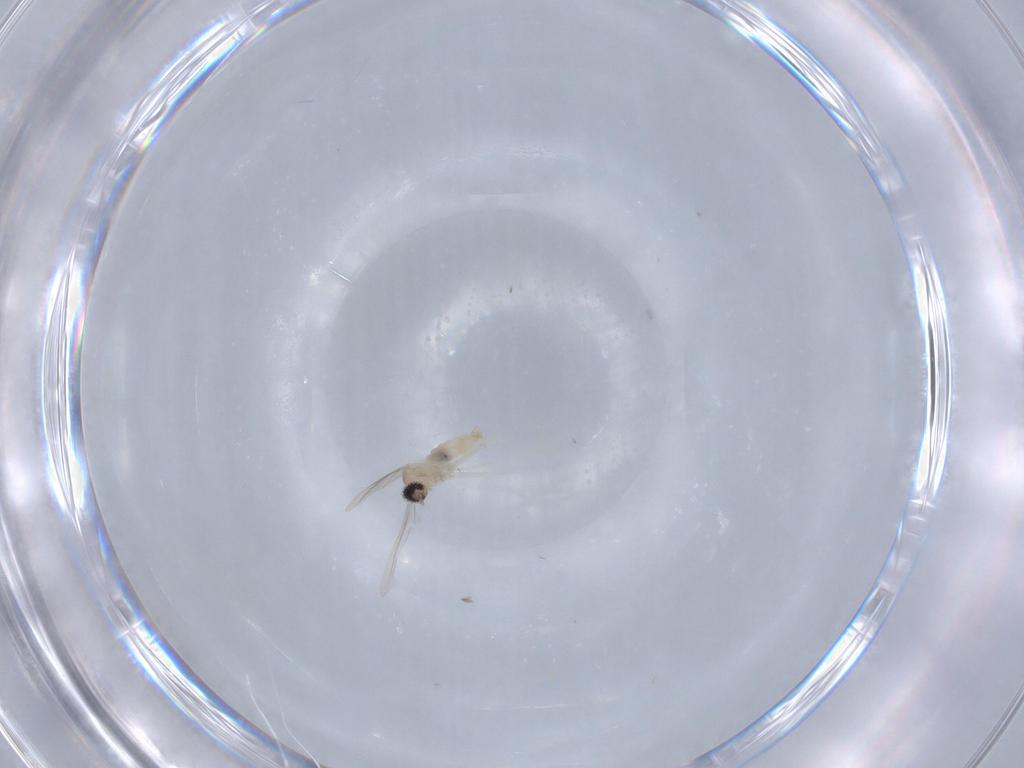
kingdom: Animalia
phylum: Arthropoda
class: Insecta
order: Diptera
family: Cecidomyiidae
